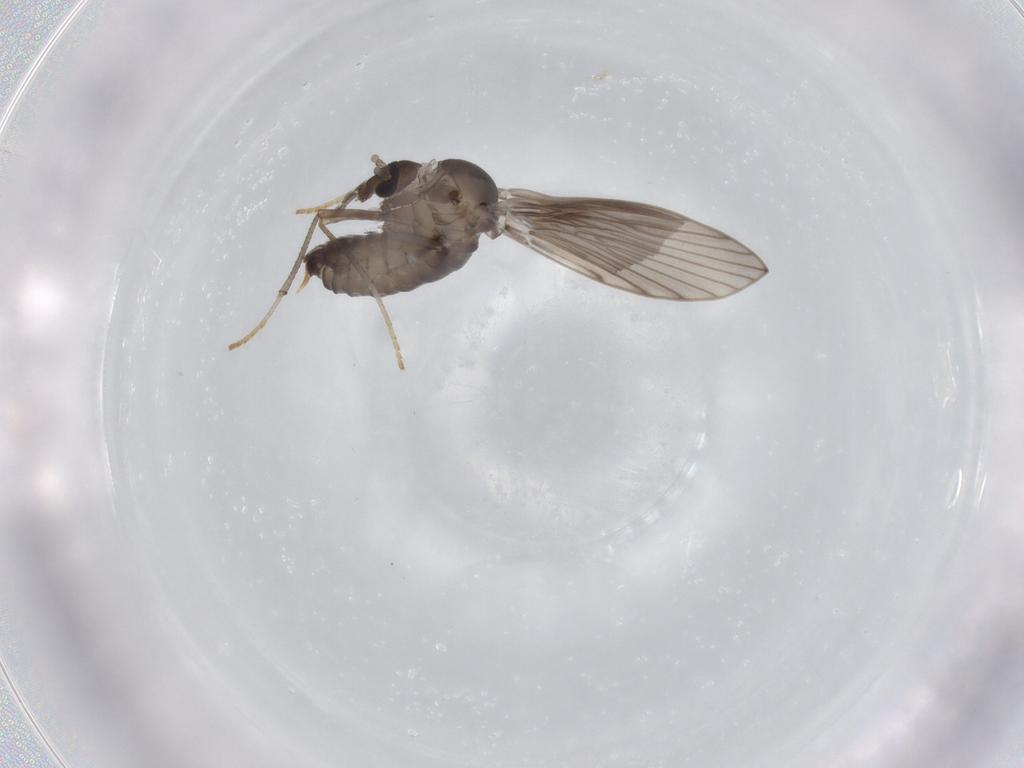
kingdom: Animalia
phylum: Arthropoda
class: Insecta
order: Diptera
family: Psychodidae
